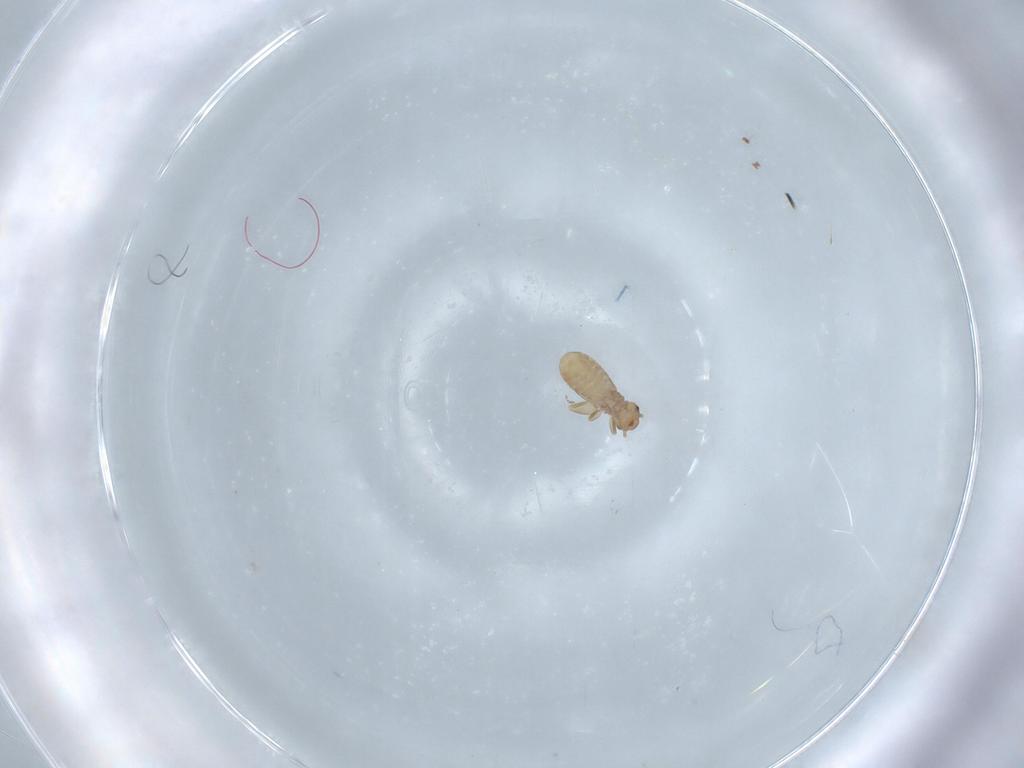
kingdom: Animalia
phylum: Arthropoda
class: Insecta
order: Psocodea
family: Liposcelididae
